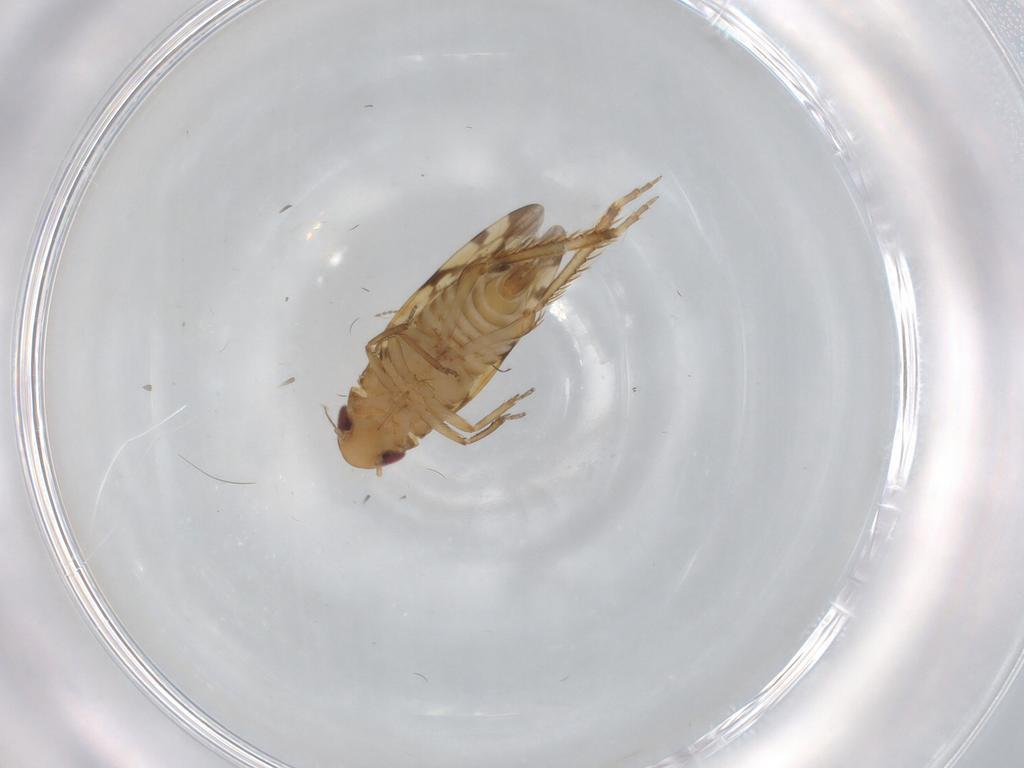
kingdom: Animalia
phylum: Arthropoda
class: Insecta
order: Hemiptera
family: Cicadellidae
